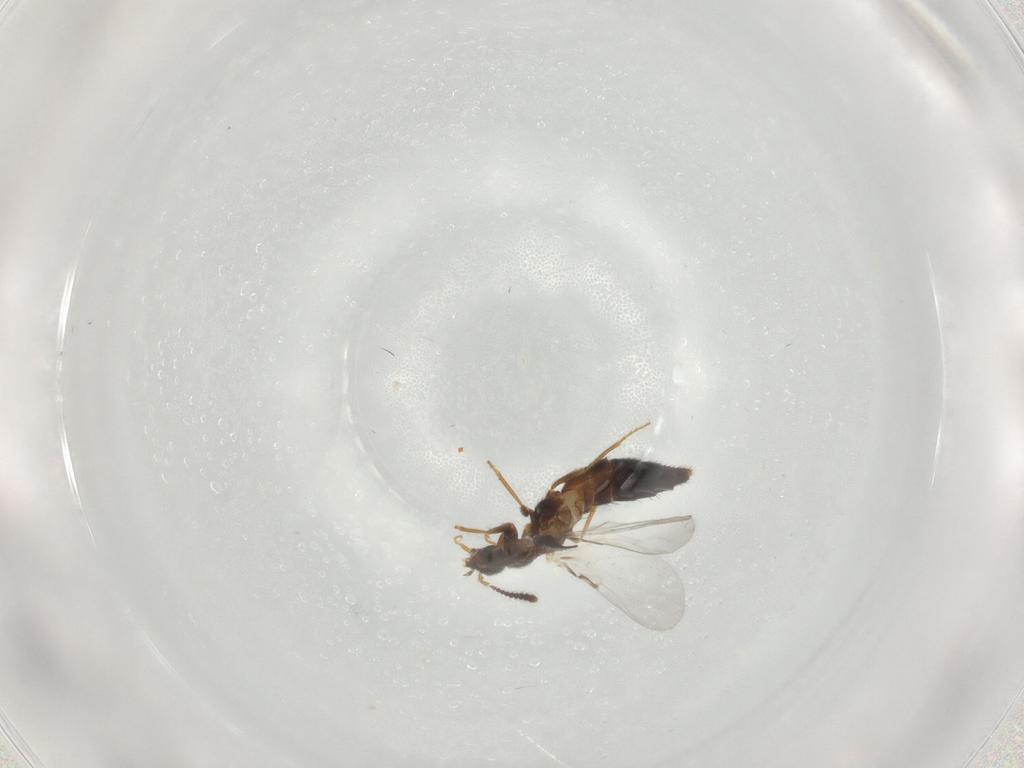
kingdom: Animalia
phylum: Arthropoda
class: Insecta
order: Coleoptera
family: Staphylinidae
